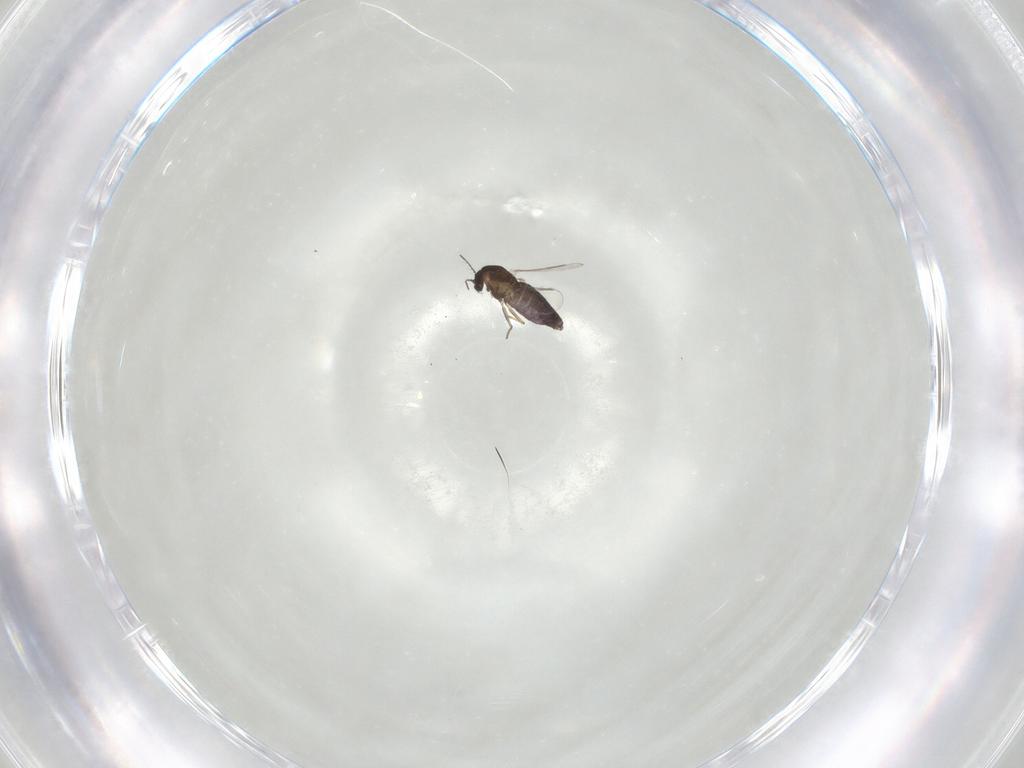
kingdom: Animalia
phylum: Arthropoda
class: Insecta
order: Diptera
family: Chironomidae
